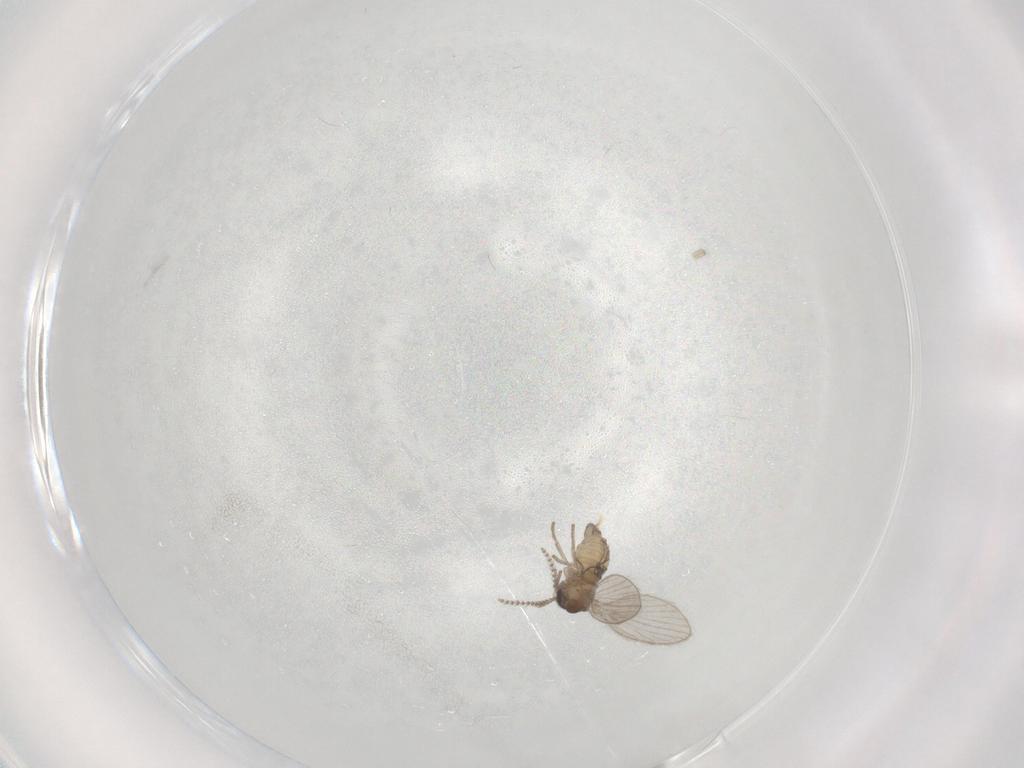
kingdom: Animalia
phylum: Arthropoda
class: Insecta
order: Diptera
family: Psychodidae
